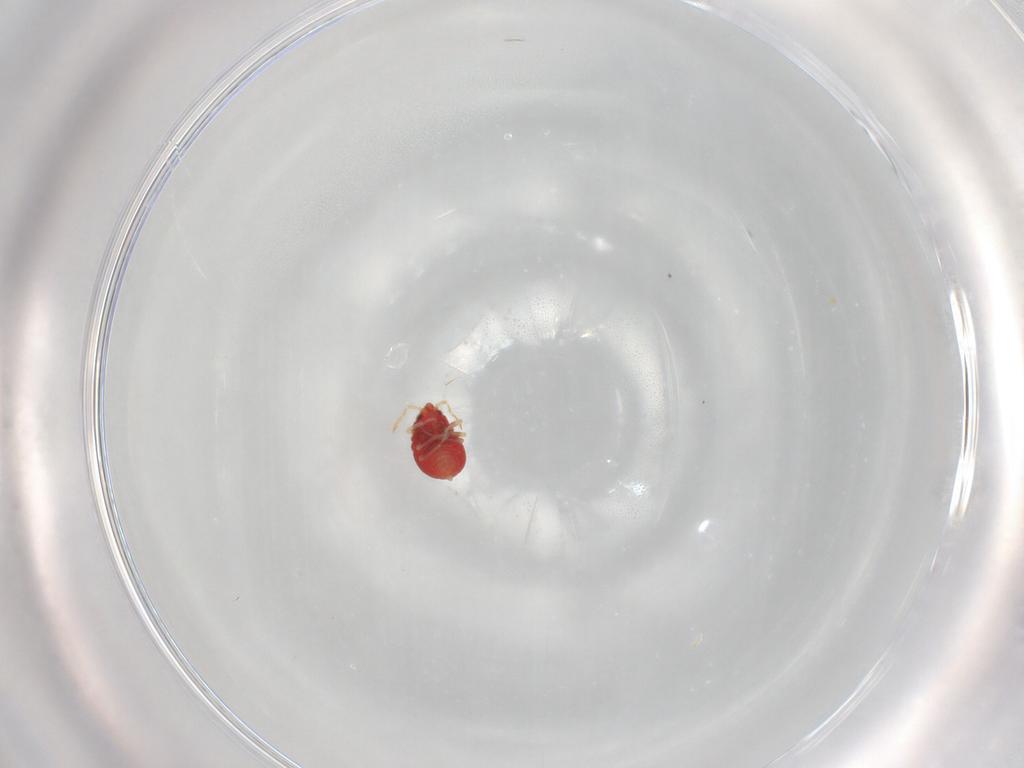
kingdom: Animalia
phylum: Arthropoda
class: Insecta
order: Hemiptera
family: Anthocoridae
